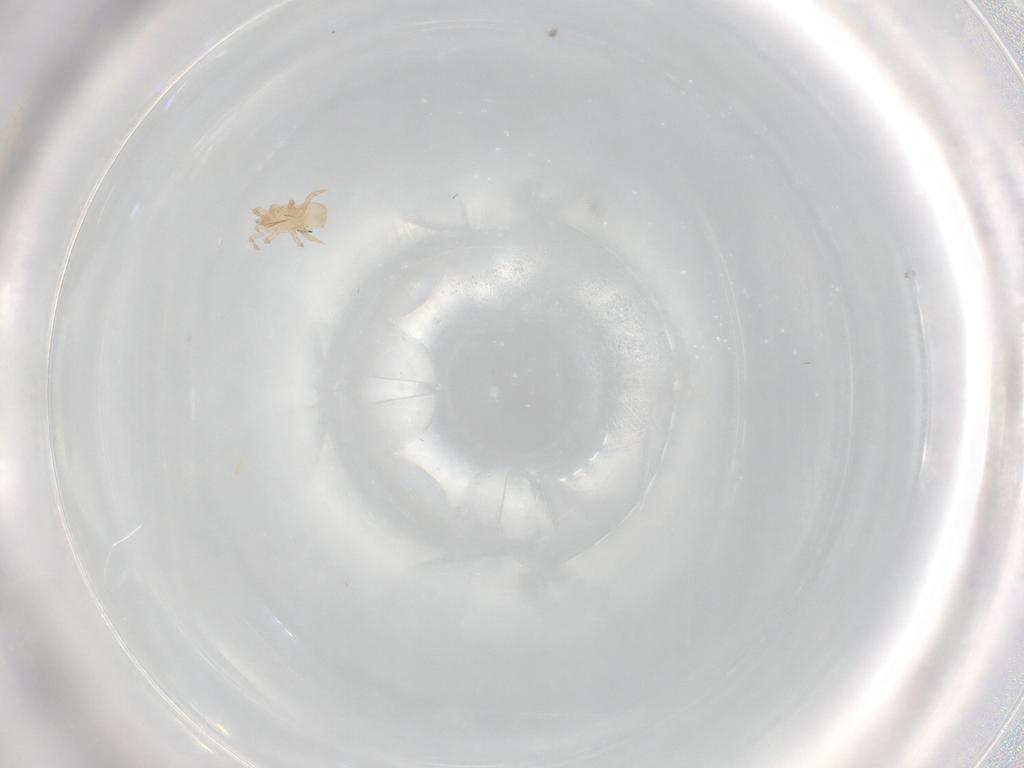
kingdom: Animalia
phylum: Arthropoda
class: Arachnida
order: Mesostigmata
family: Digamasellidae
